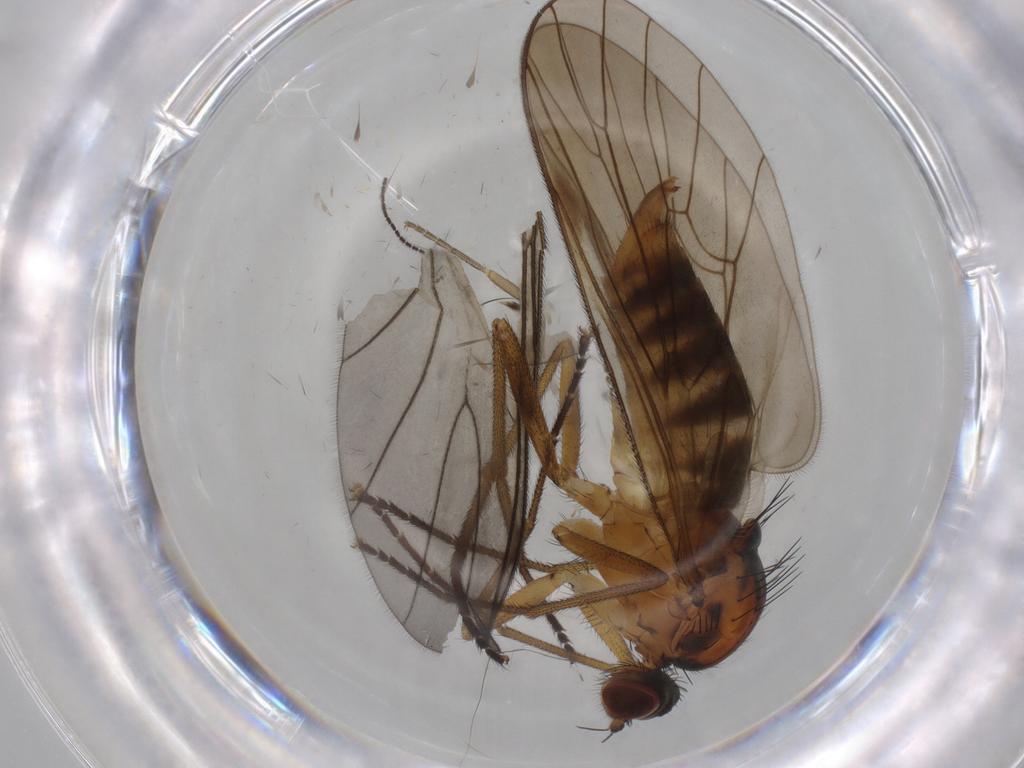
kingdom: Animalia
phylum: Arthropoda
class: Insecta
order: Diptera
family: Brachystomatidae
